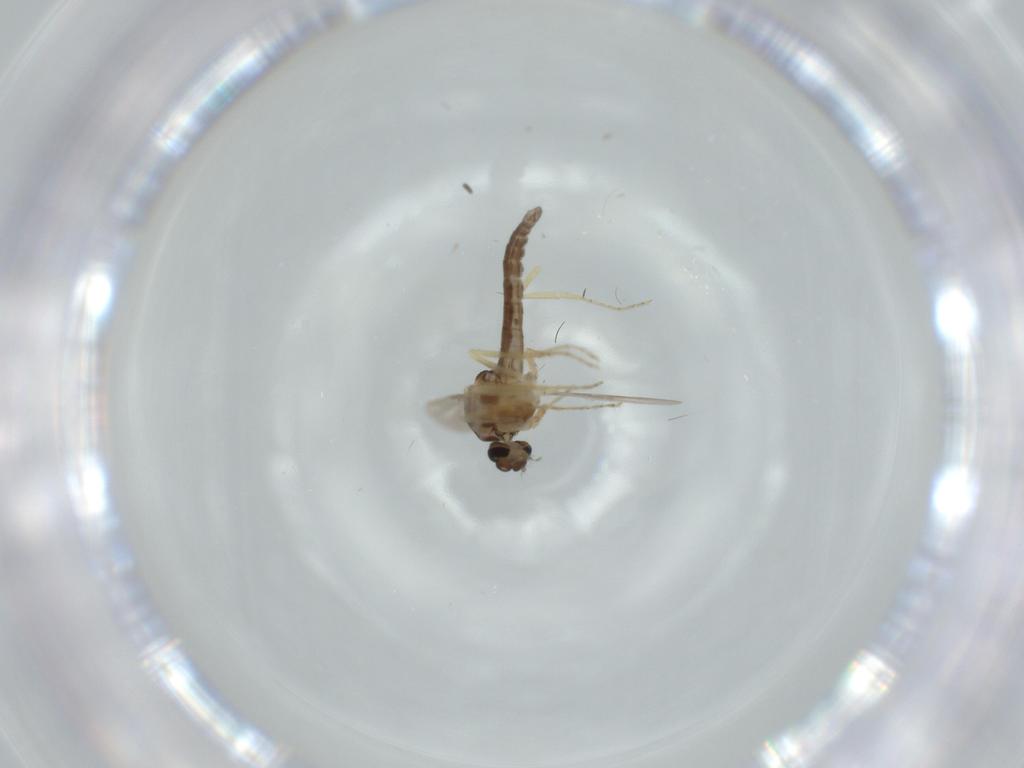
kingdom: Animalia
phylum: Arthropoda
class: Insecta
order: Diptera
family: Ceratopogonidae
